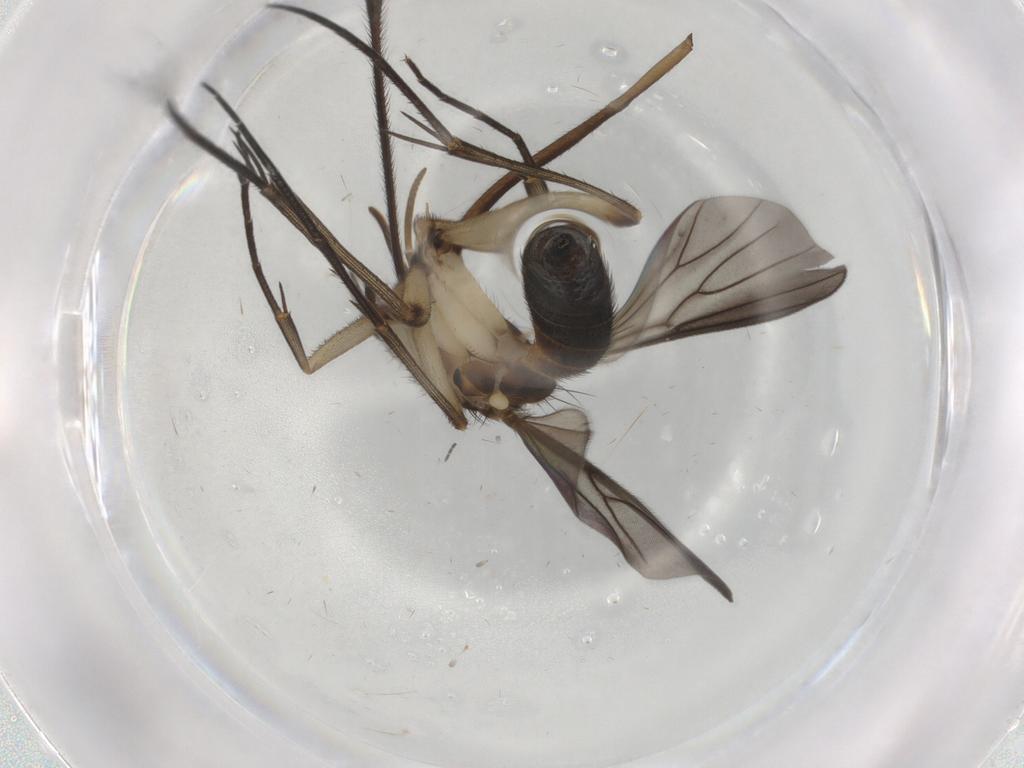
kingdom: Animalia
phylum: Arthropoda
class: Insecta
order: Diptera
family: Mycetophilidae
